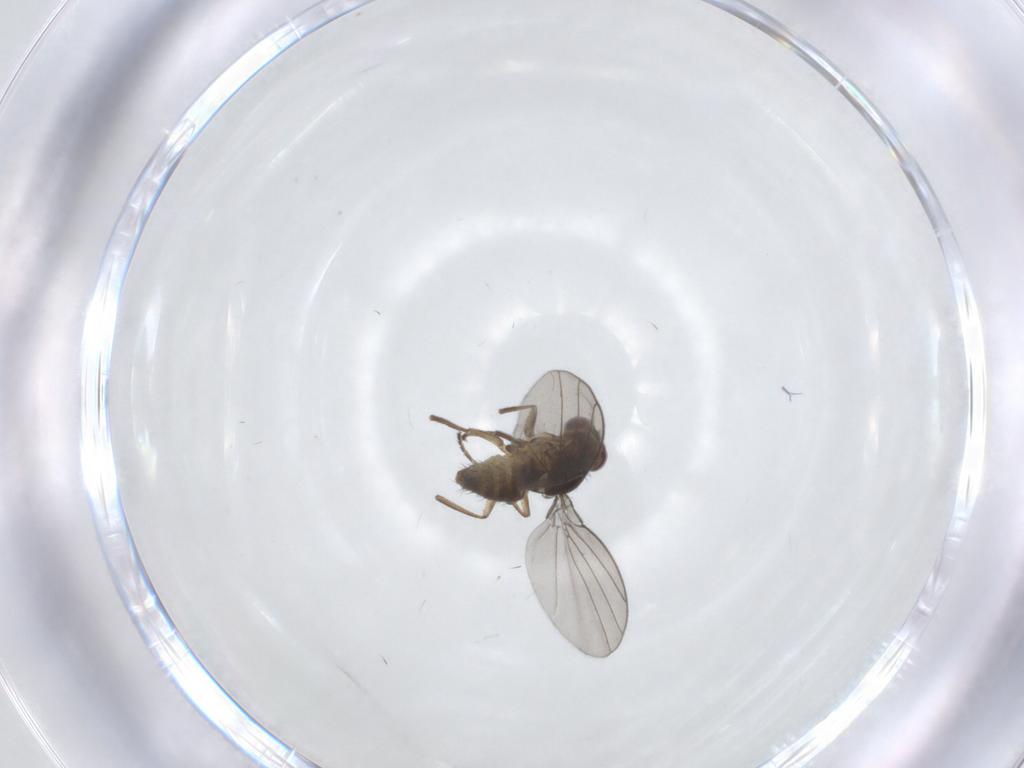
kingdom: Animalia
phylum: Arthropoda
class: Insecta
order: Diptera
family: Agromyzidae
